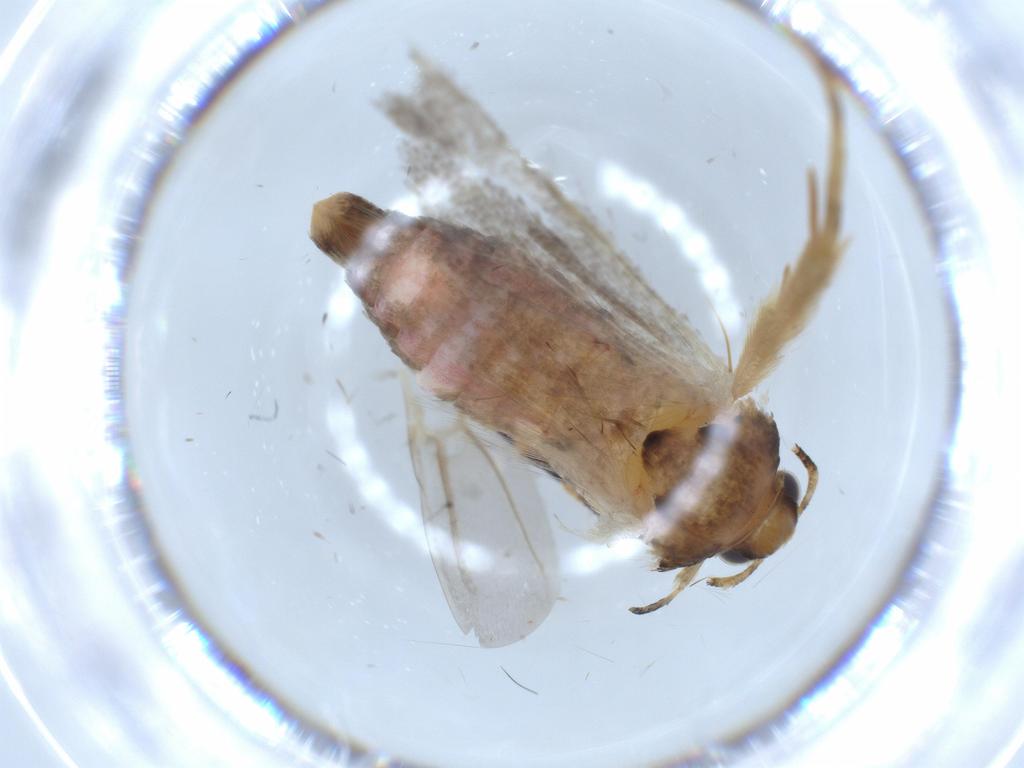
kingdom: Animalia
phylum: Arthropoda
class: Insecta
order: Lepidoptera
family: Gelechiidae
